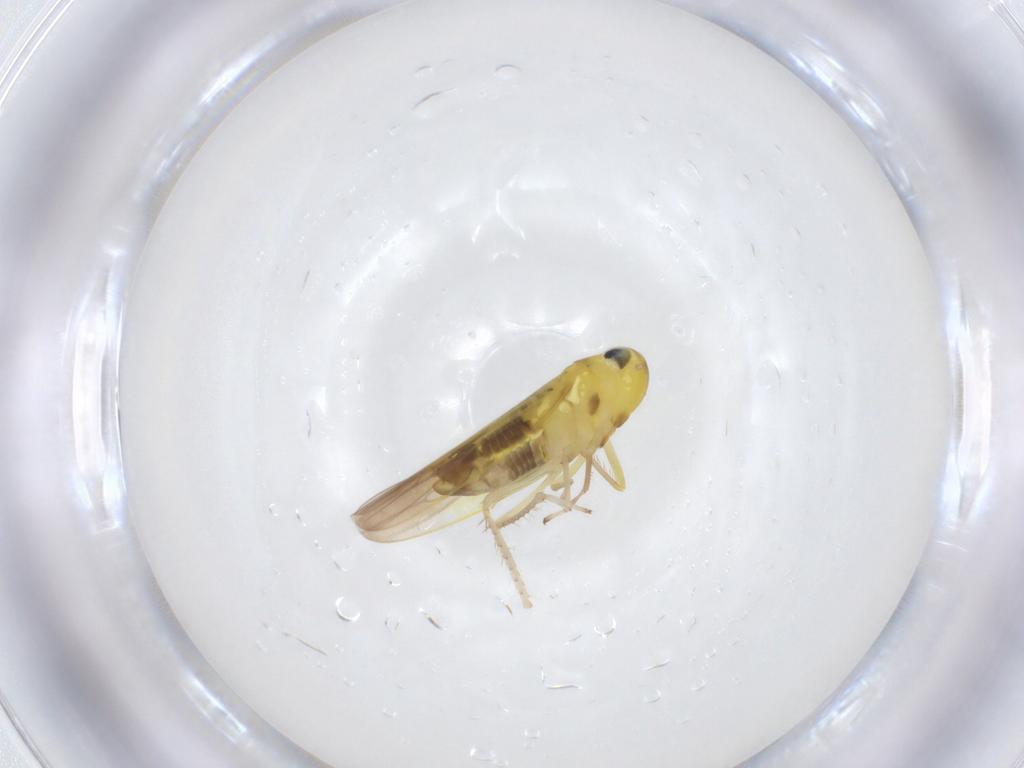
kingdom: Animalia
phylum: Arthropoda
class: Insecta
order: Hemiptera
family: Cicadellidae
